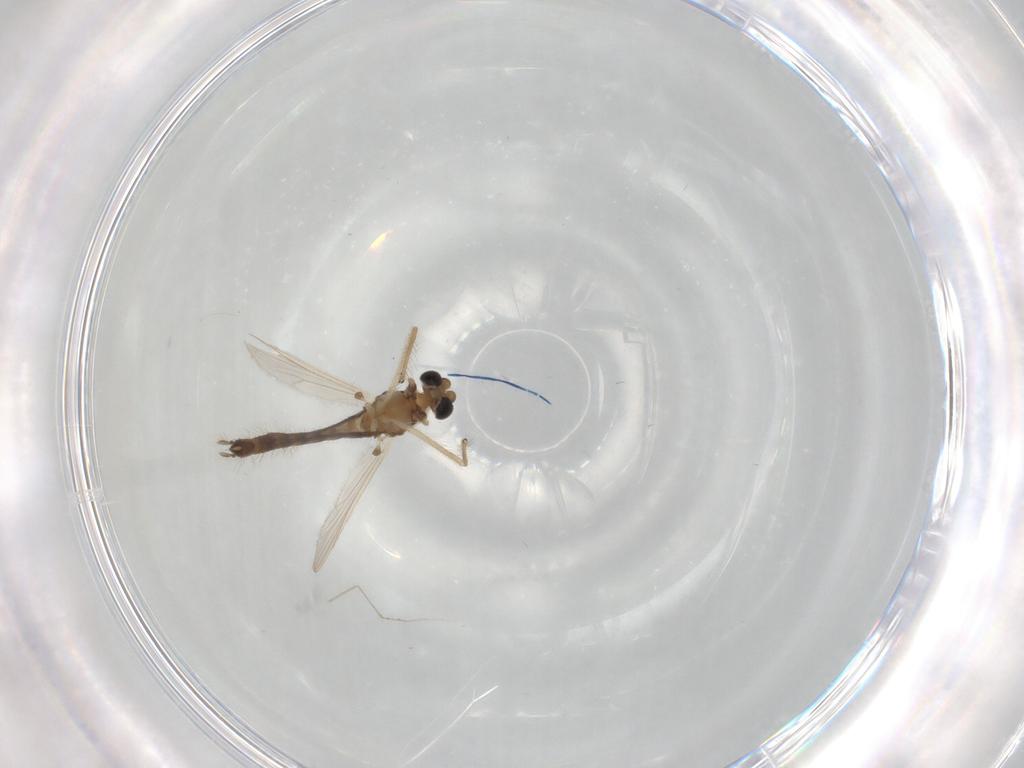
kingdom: Animalia
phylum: Arthropoda
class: Insecta
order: Diptera
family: Chironomidae
